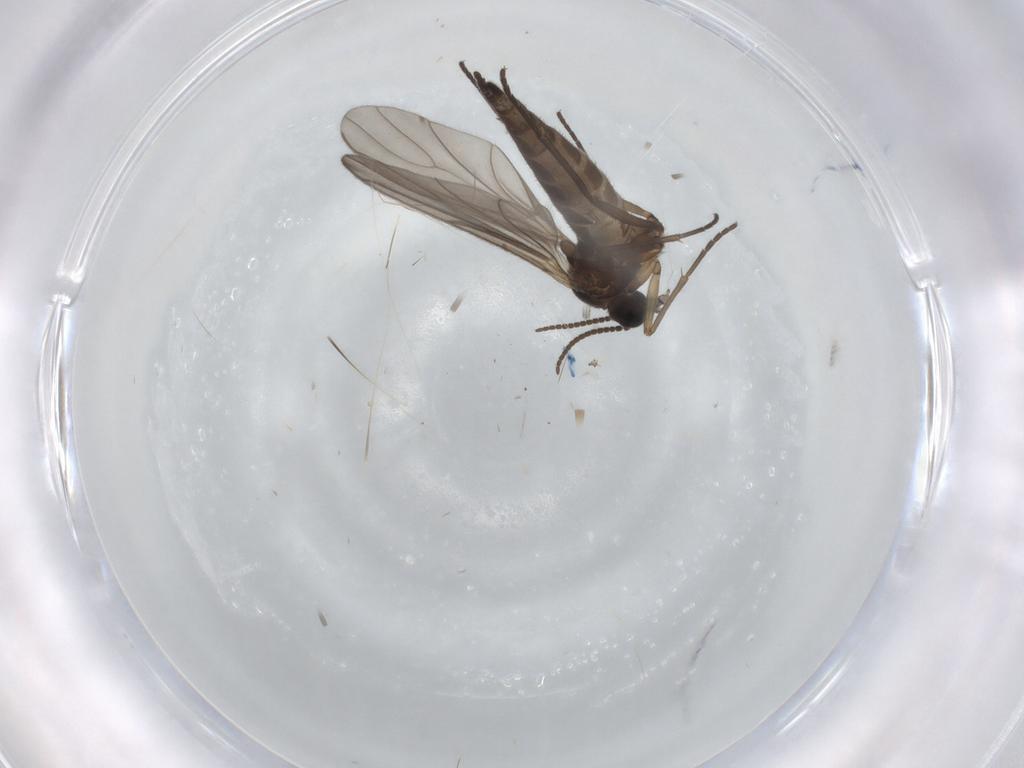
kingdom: Animalia
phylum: Arthropoda
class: Insecta
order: Diptera
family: Sciaridae
